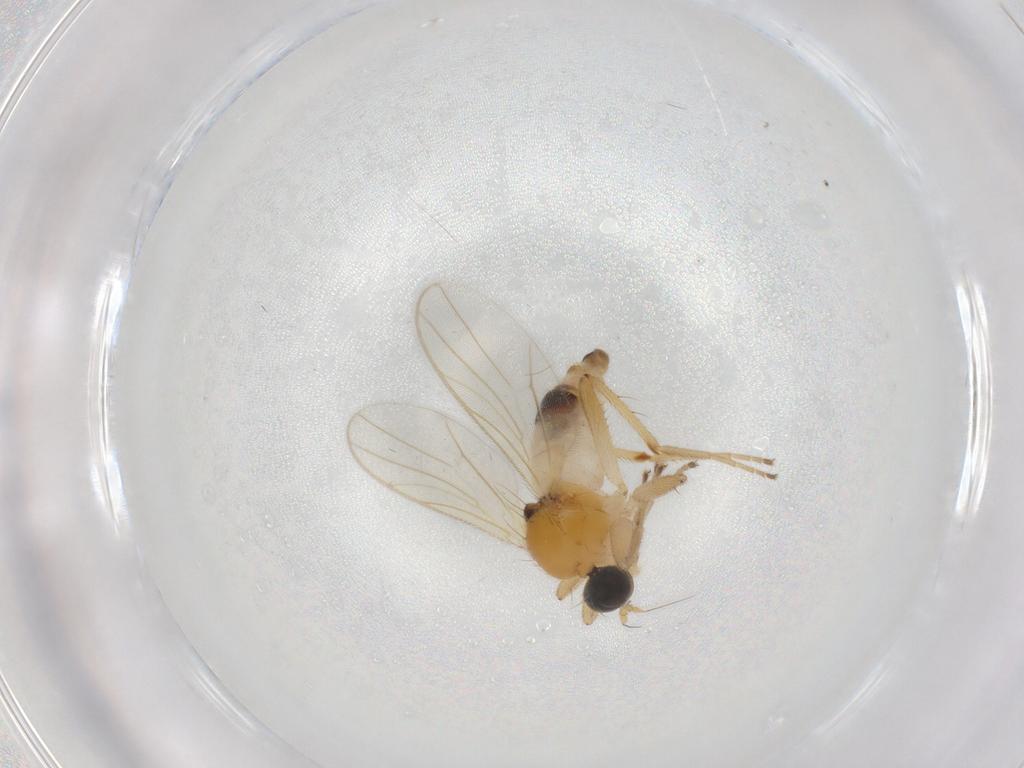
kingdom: Animalia
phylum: Arthropoda
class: Insecta
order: Diptera
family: Hybotidae
